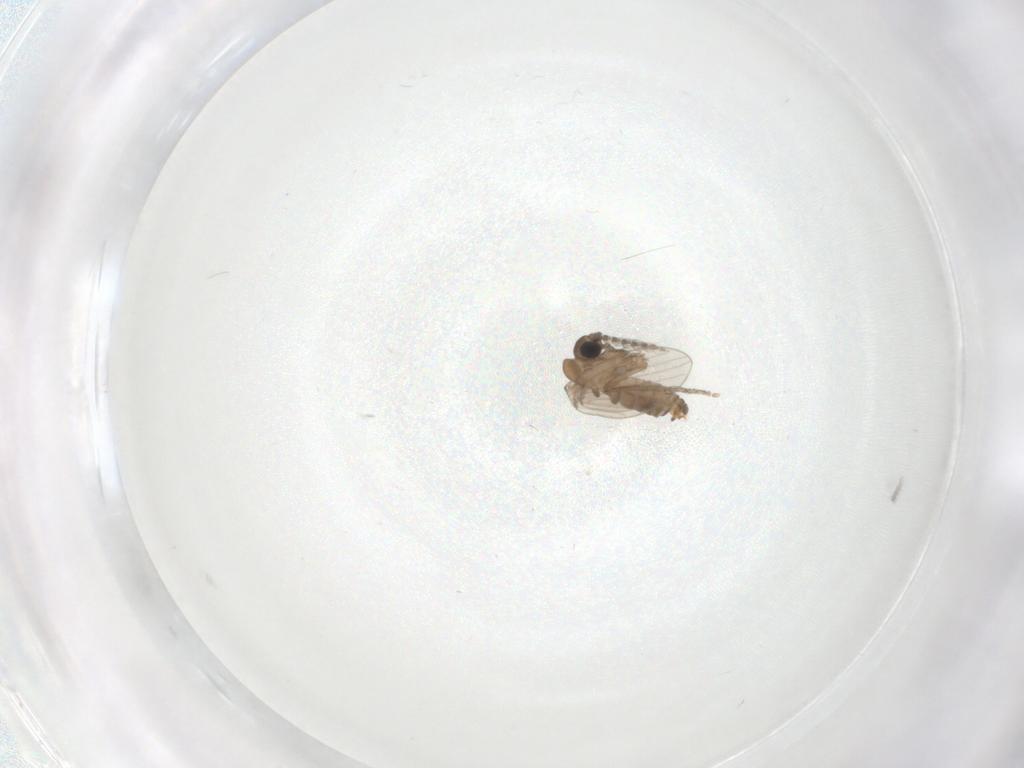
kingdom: Animalia
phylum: Arthropoda
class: Insecta
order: Diptera
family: Psychodidae
